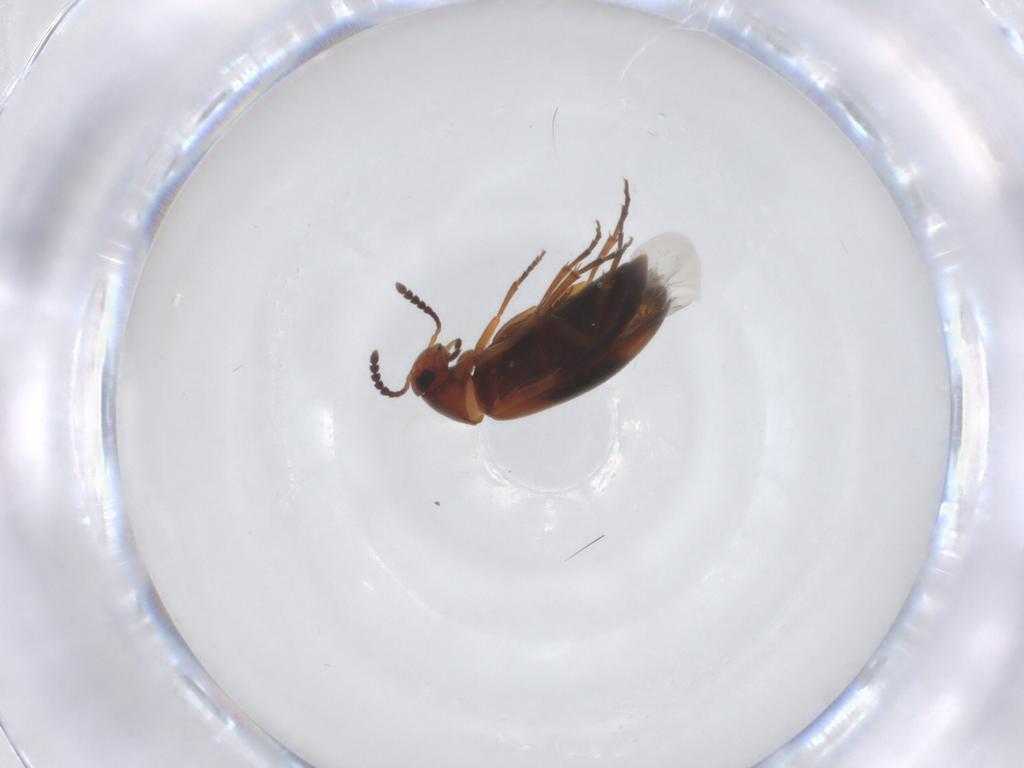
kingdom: Animalia
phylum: Arthropoda
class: Insecta
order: Coleoptera
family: Scraptiidae
